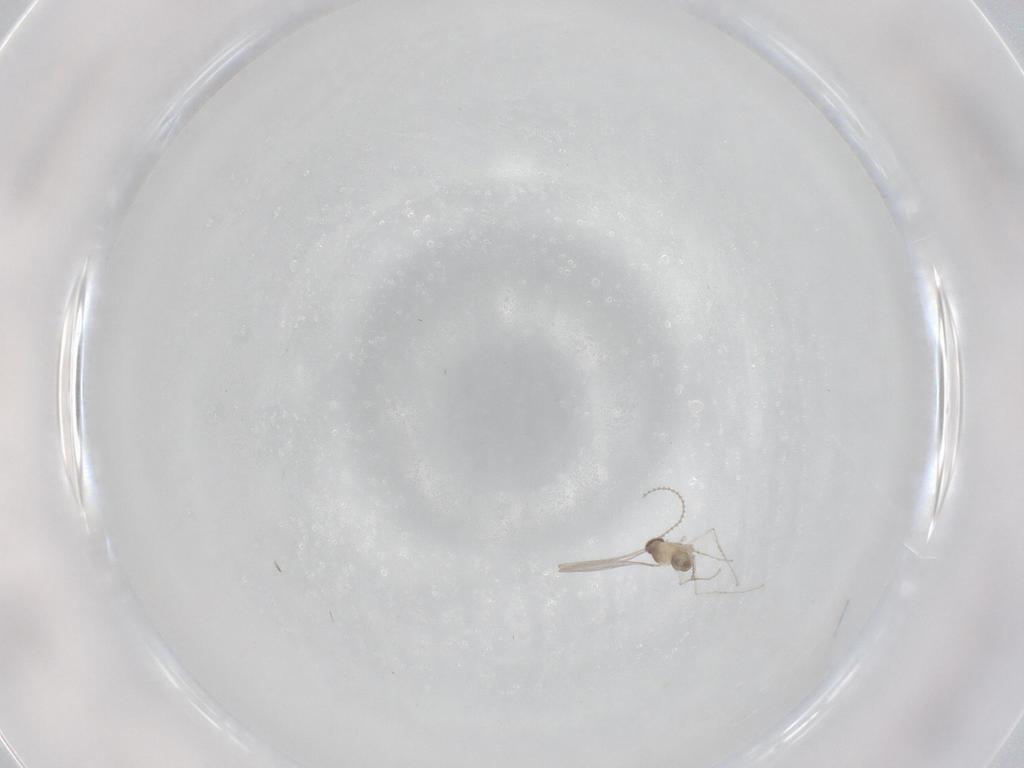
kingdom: Animalia
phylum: Arthropoda
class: Insecta
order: Diptera
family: Cecidomyiidae
